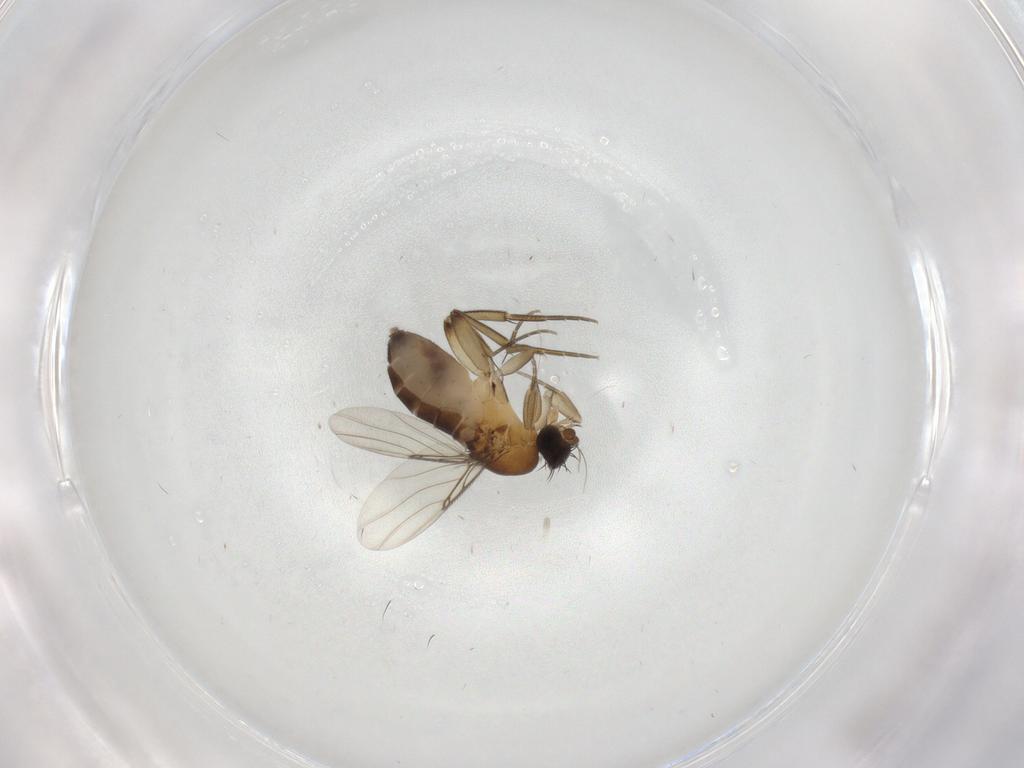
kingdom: Animalia
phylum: Arthropoda
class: Insecta
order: Diptera
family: Phoridae
